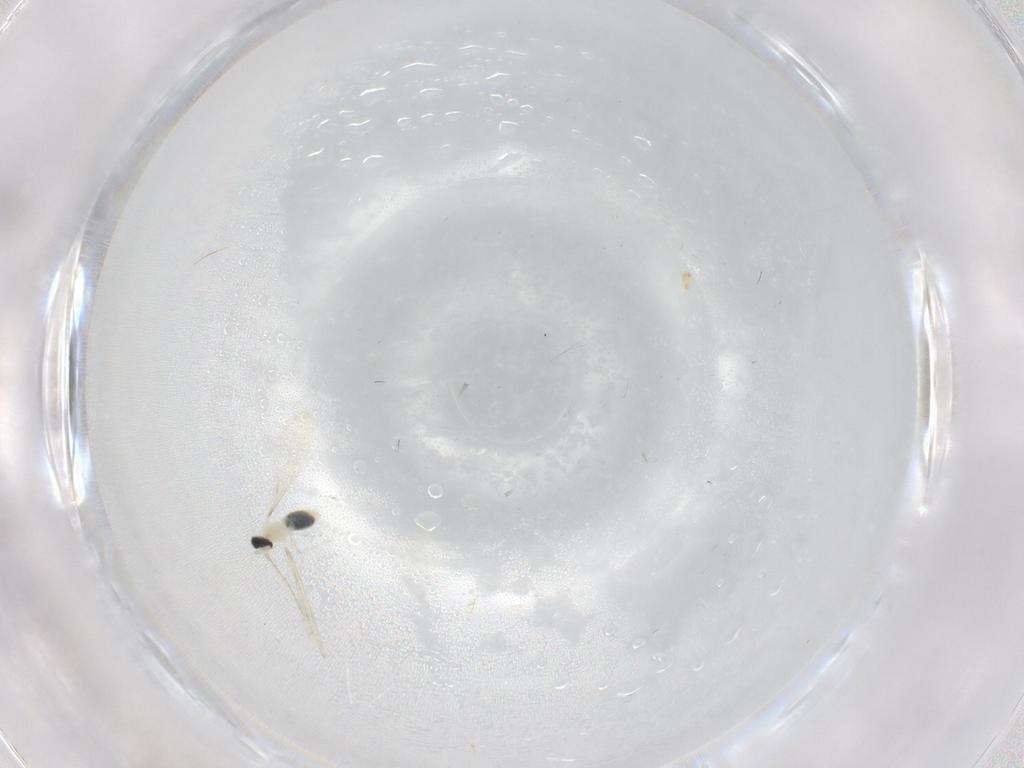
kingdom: Animalia
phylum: Arthropoda
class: Insecta
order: Diptera
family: Cecidomyiidae
